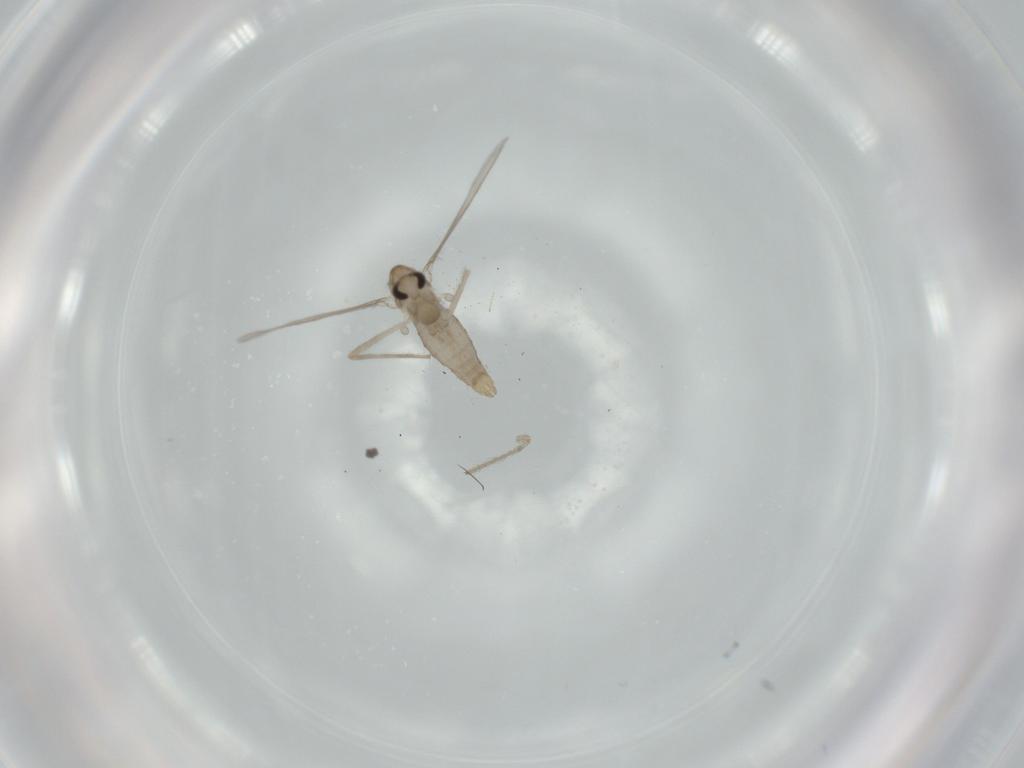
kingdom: Animalia
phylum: Arthropoda
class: Insecta
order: Diptera
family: Chironomidae
